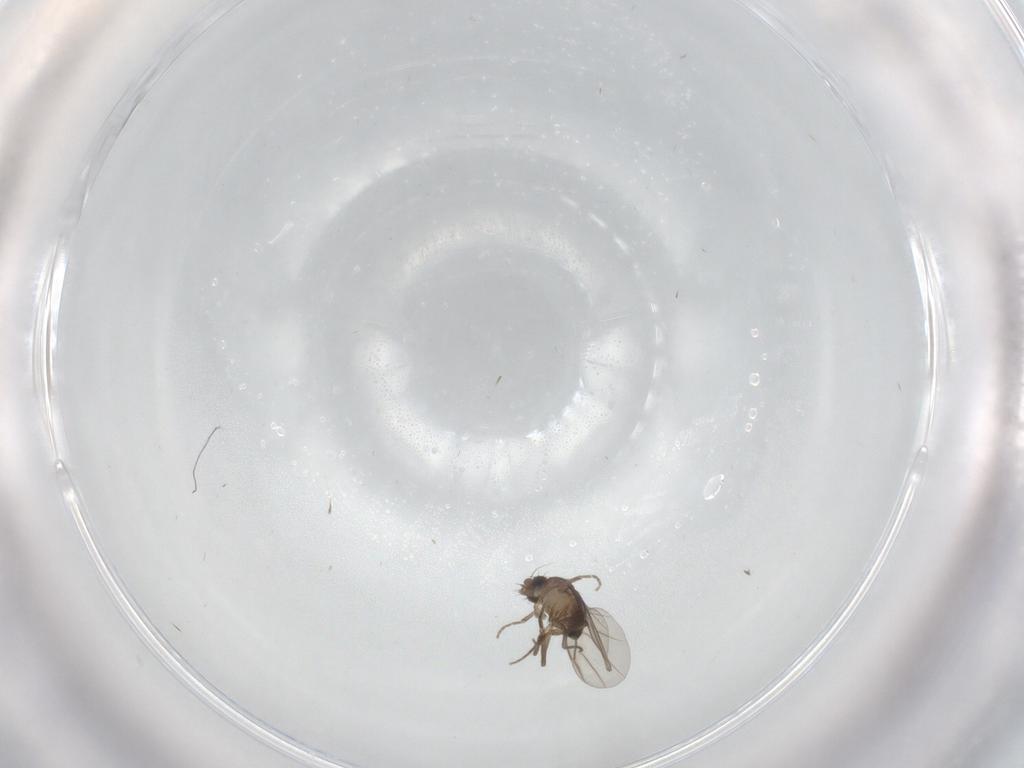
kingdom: Animalia
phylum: Arthropoda
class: Insecta
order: Diptera
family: Phoridae
